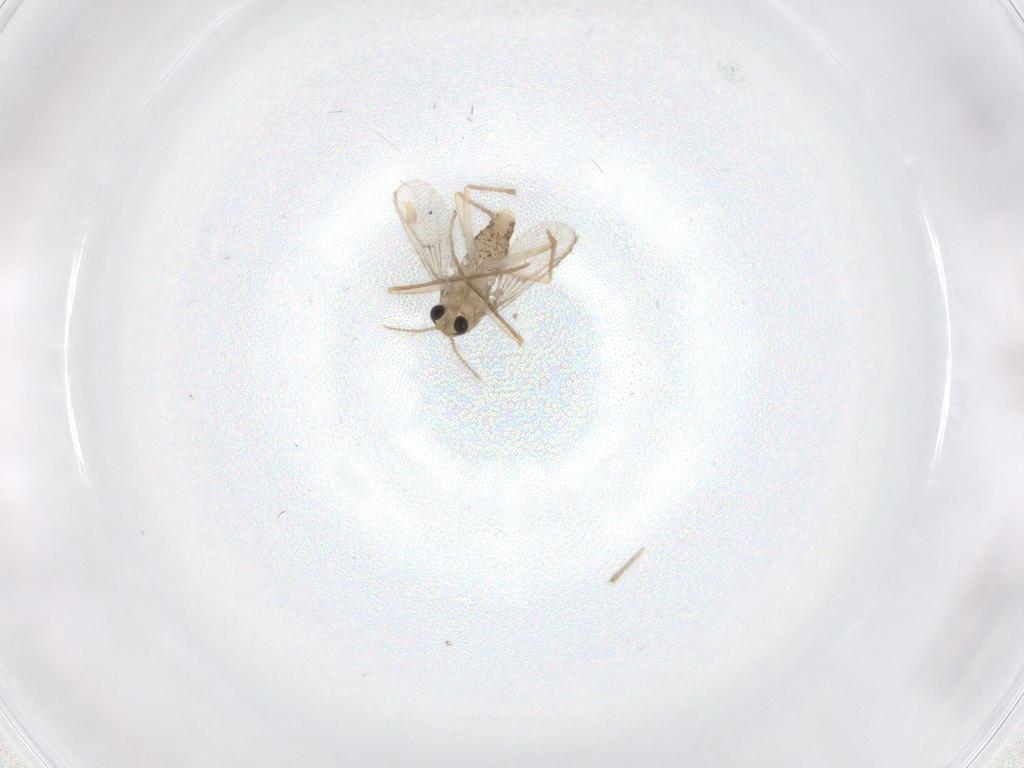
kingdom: Animalia
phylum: Arthropoda
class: Insecta
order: Diptera
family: Cecidomyiidae
